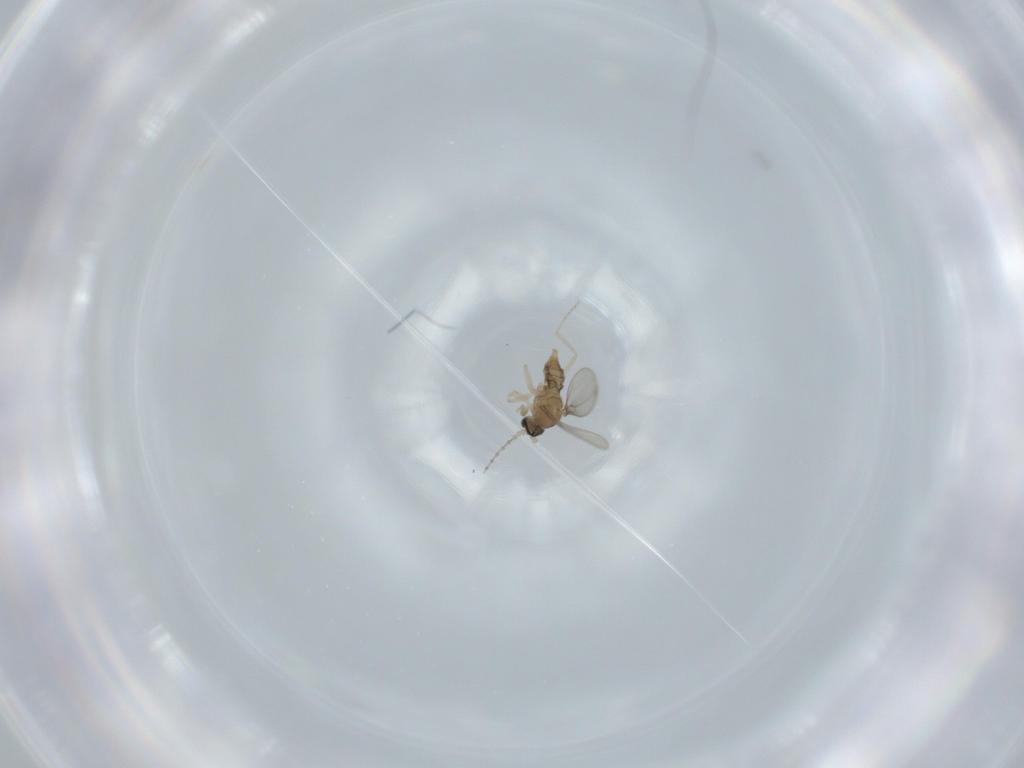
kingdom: Animalia
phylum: Arthropoda
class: Insecta
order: Diptera
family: Cecidomyiidae
